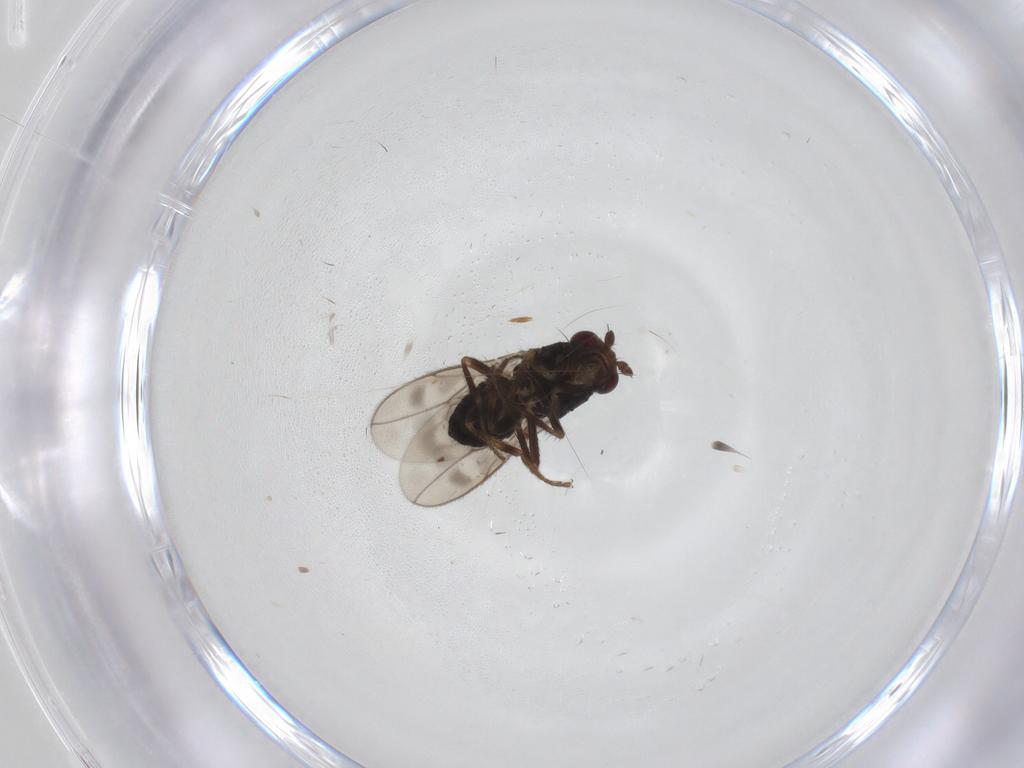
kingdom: Animalia
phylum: Arthropoda
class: Insecta
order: Diptera
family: Sphaeroceridae
